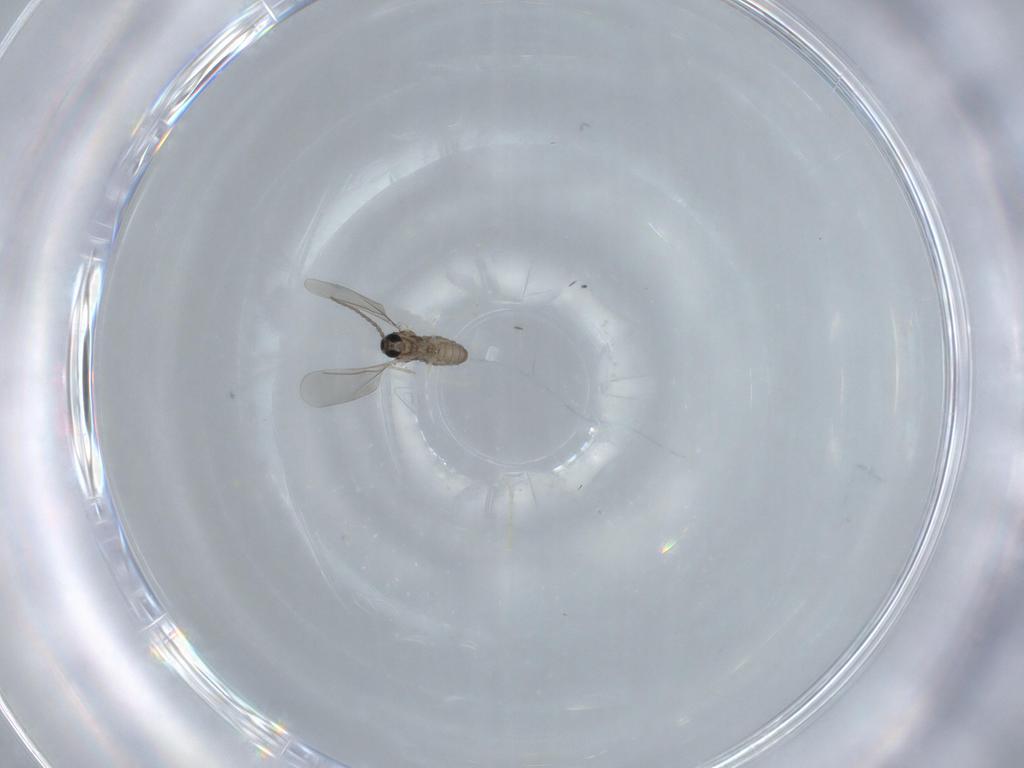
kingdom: Animalia
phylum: Arthropoda
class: Insecta
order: Diptera
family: Cecidomyiidae
